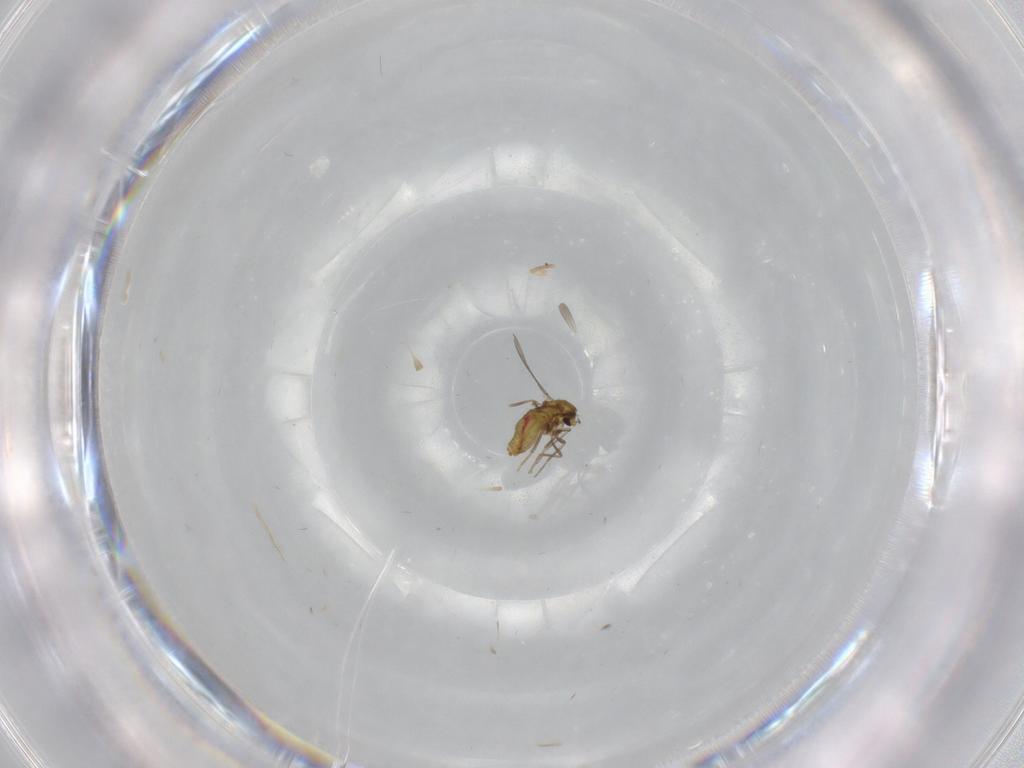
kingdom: Animalia
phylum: Arthropoda
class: Insecta
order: Diptera
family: Chironomidae
